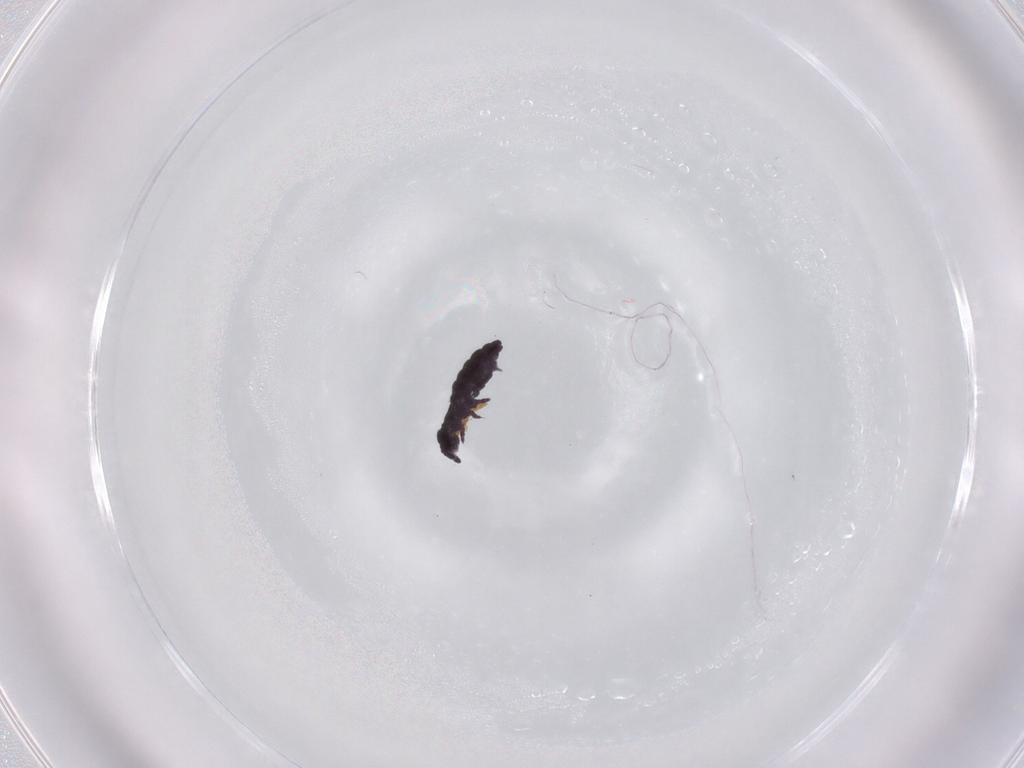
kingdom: Animalia
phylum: Arthropoda
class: Collembola
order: Poduromorpha
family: Hypogastruridae
